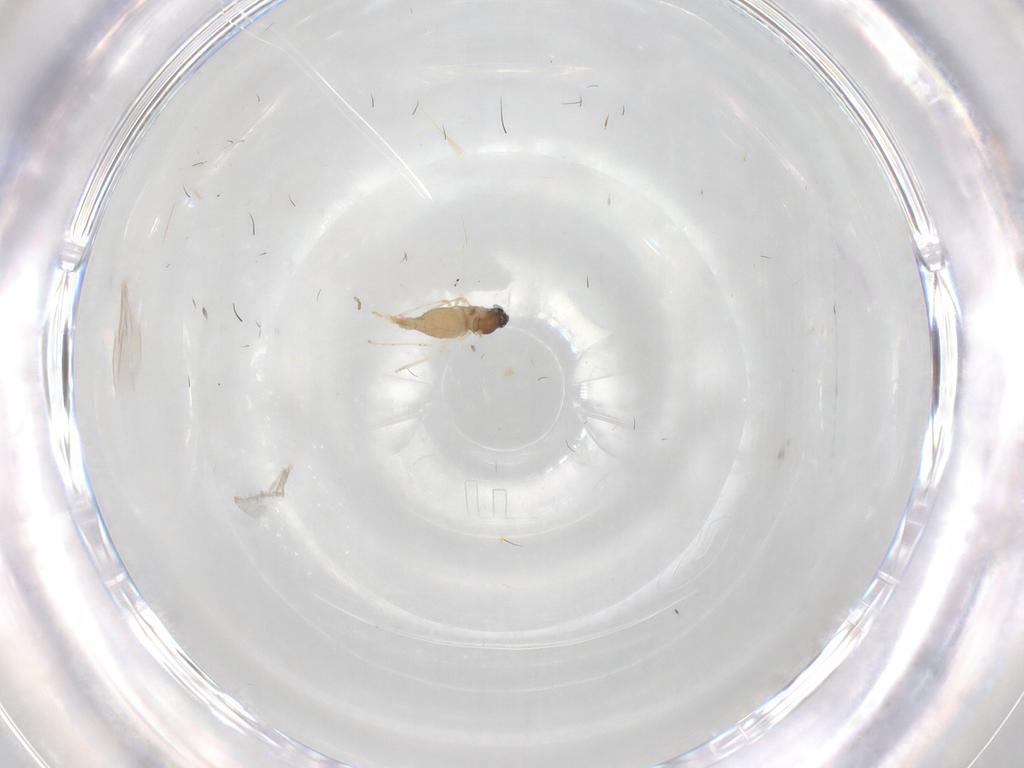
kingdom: Animalia
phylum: Arthropoda
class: Insecta
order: Diptera
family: Cecidomyiidae
